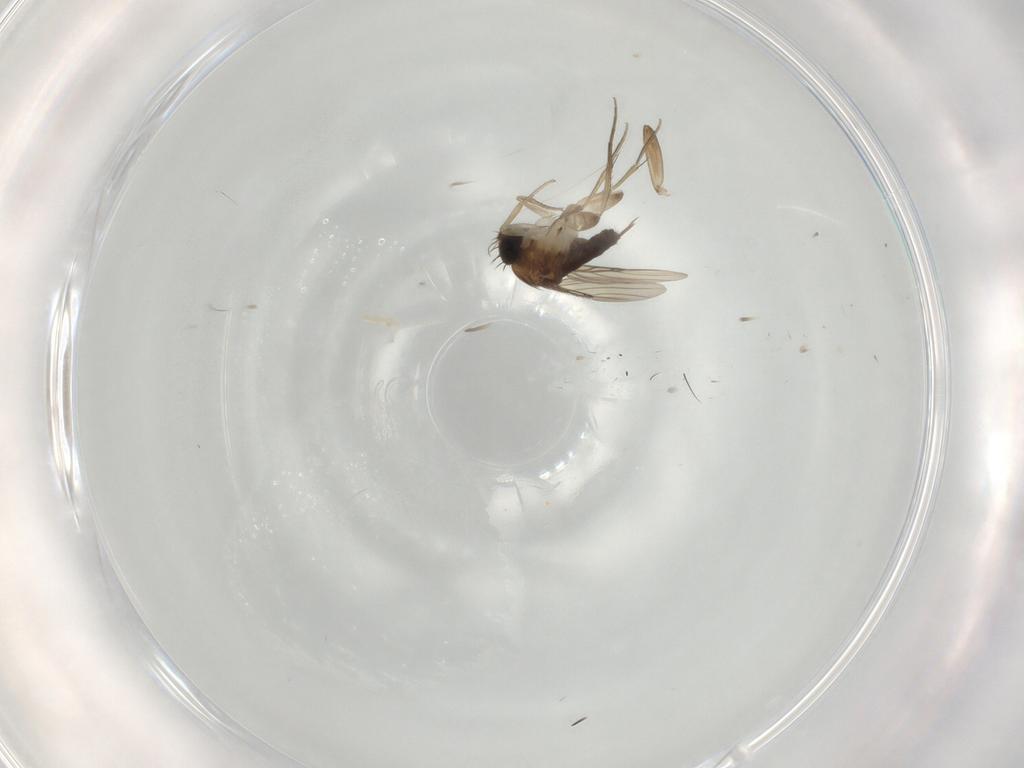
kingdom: Animalia
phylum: Arthropoda
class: Insecta
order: Diptera
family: Phoridae
